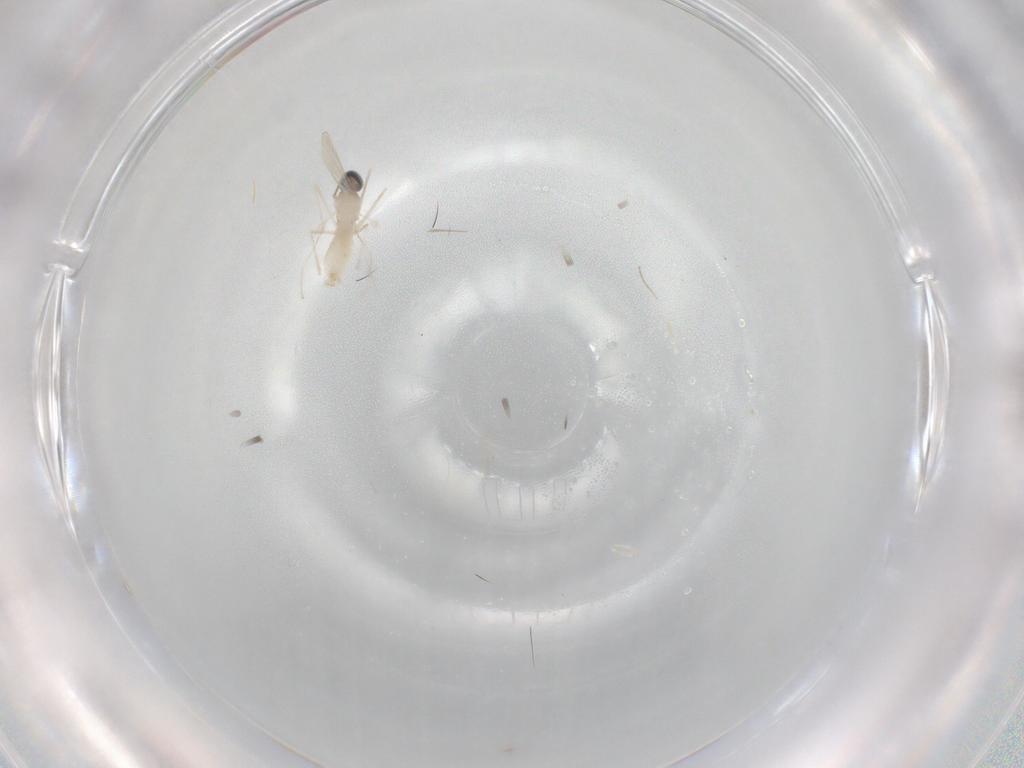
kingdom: Animalia
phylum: Arthropoda
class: Insecta
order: Diptera
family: Cecidomyiidae
